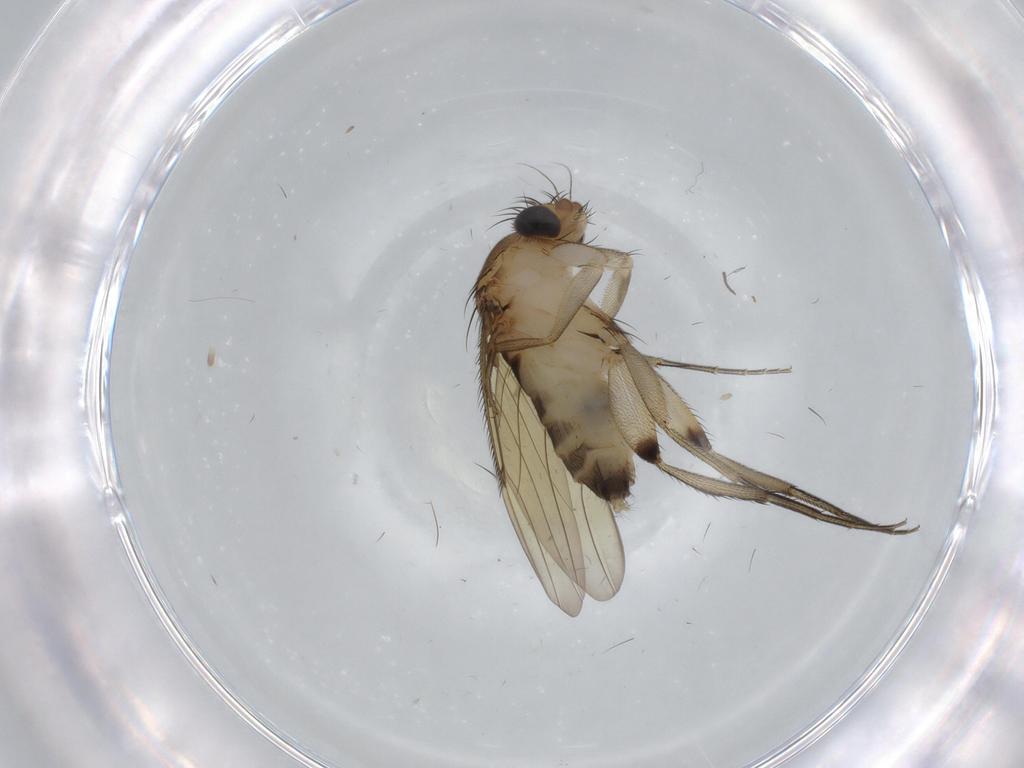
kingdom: Animalia
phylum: Arthropoda
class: Insecta
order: Diptera
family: Phoridae
